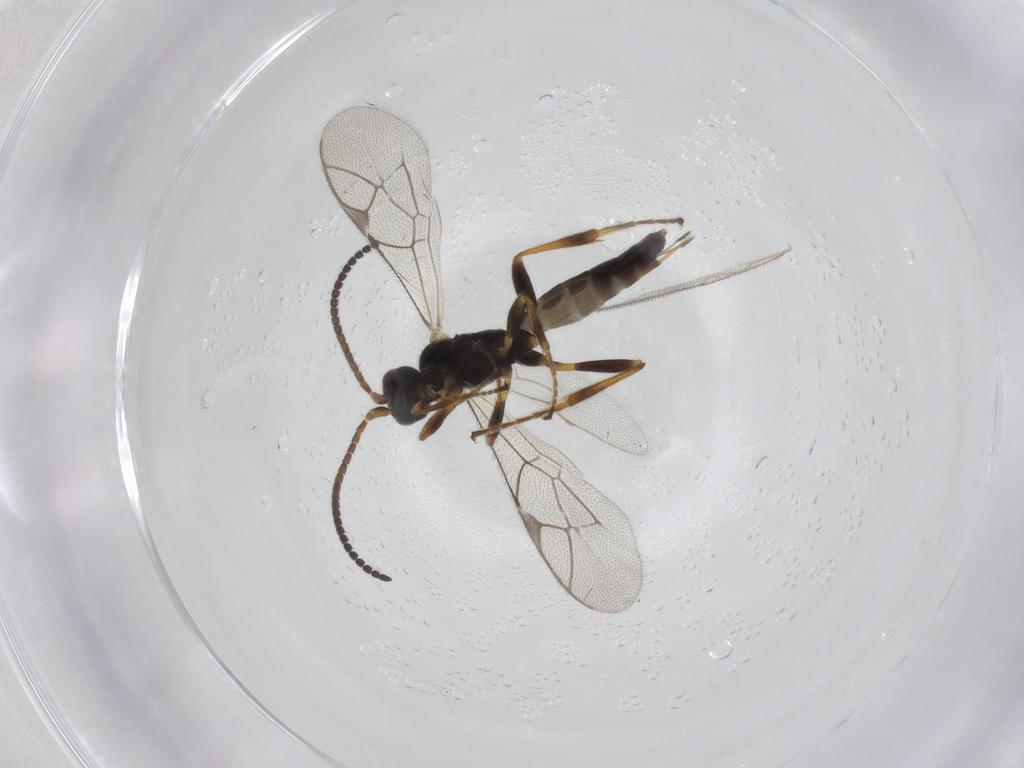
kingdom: Animalia
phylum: Arthropoda
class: Insecta
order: Hymenoptera
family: Ichneumonidae
